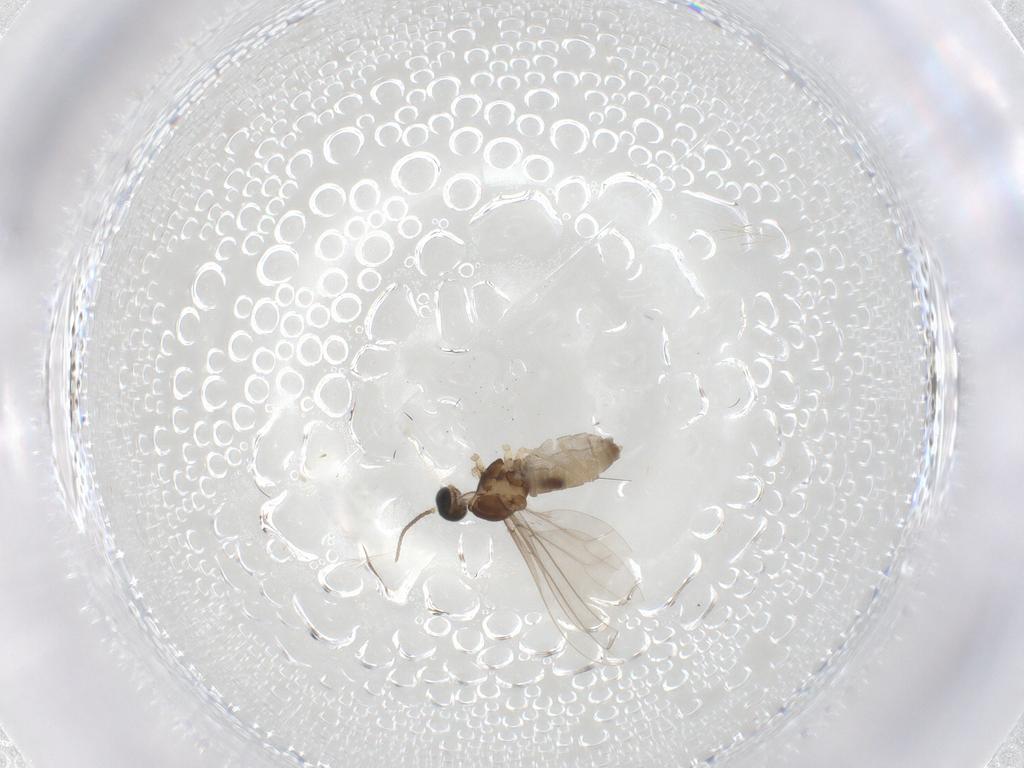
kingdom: Animalia
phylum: Arthropoda
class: Insecta
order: Diptera
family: Cecidomyiidae
